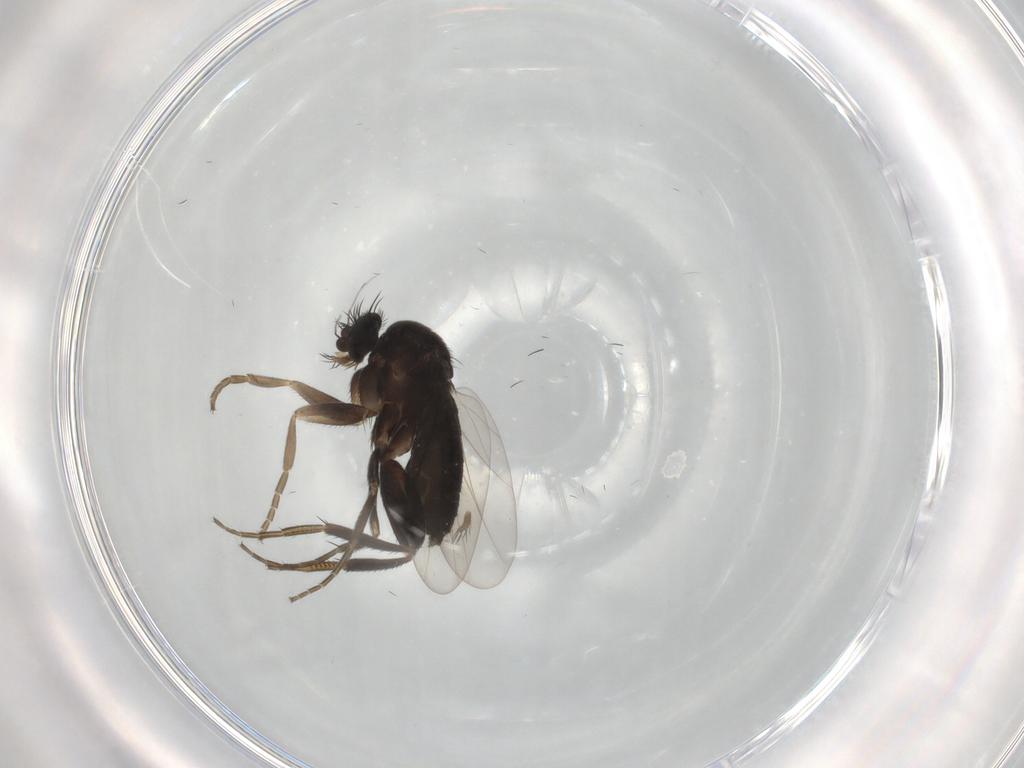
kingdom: Animalia
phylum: Arthropoda
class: Insecta
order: Diptera
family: Phoridae
